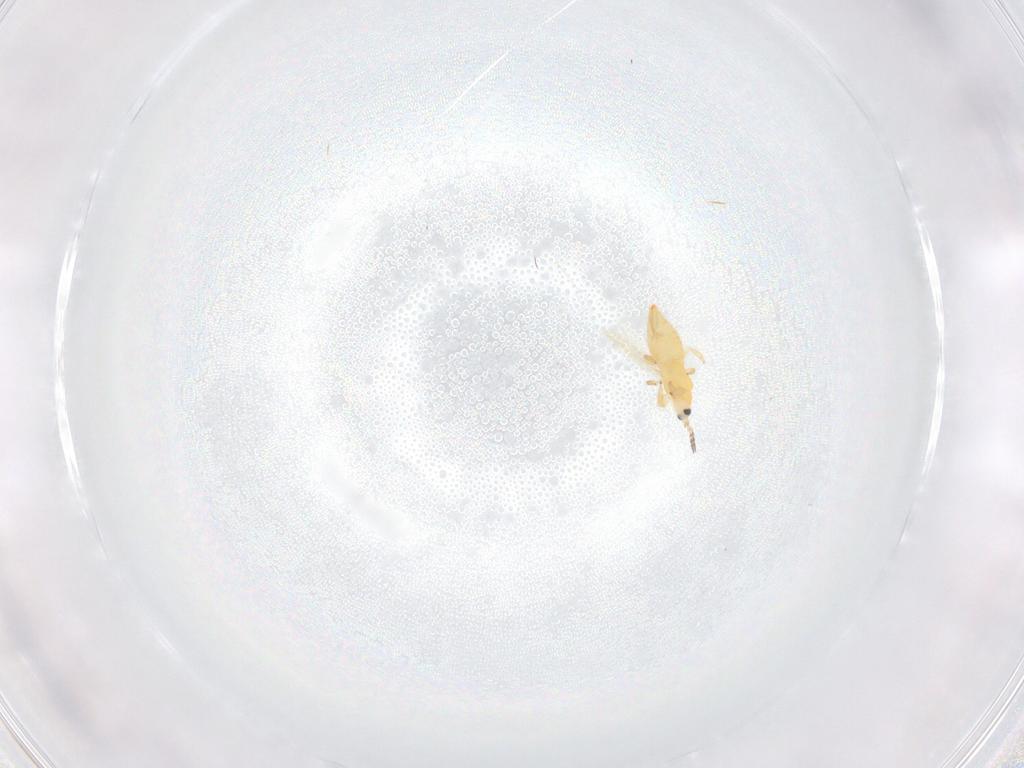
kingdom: Animalia
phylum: Arthropoda
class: Insecta
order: Thysanoptera
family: Melanthripidae
